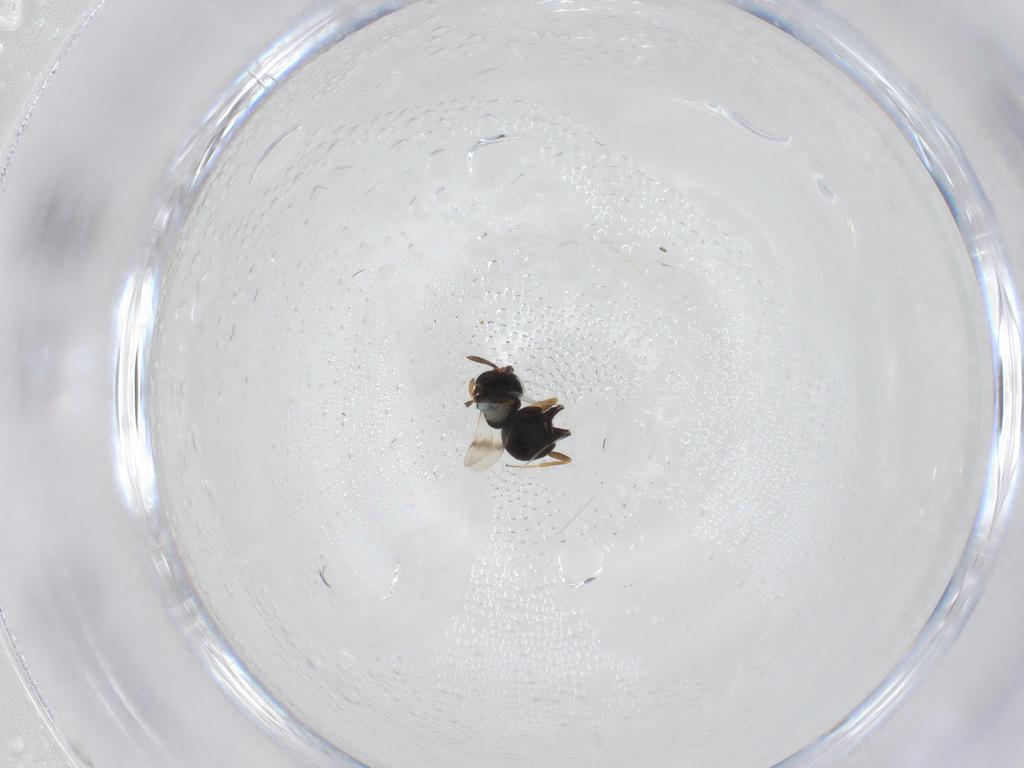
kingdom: Animalia
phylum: Arthropoda
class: Insecta
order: Hymenoptera
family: Scelionidae
